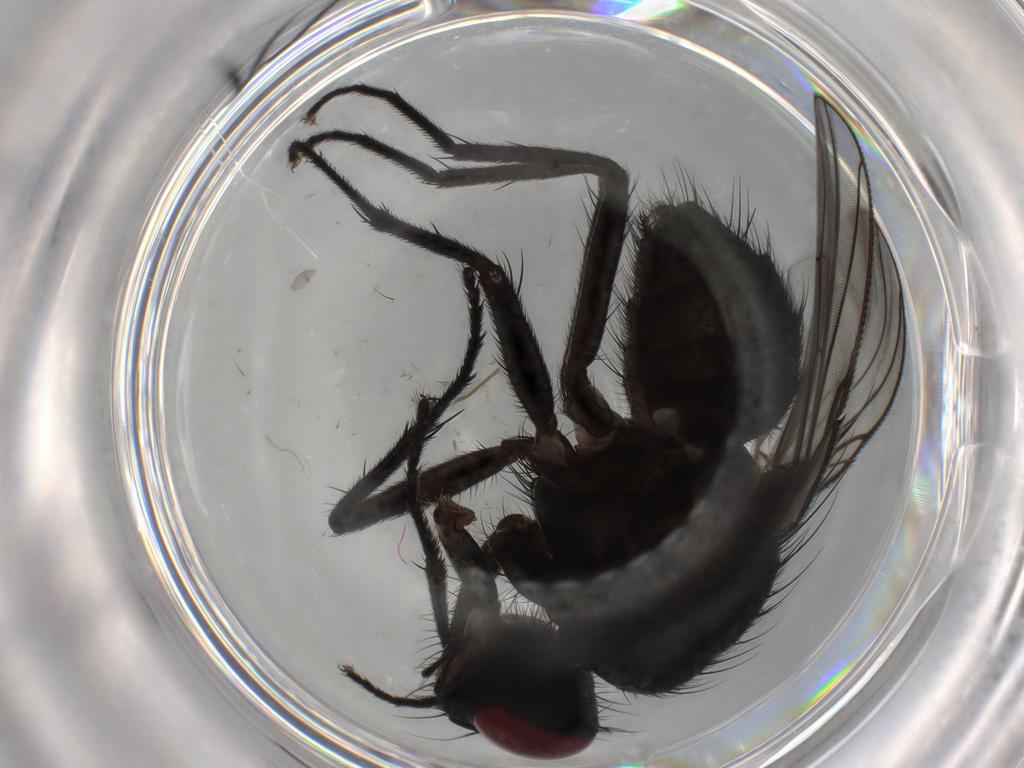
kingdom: Animalia
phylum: Arthropoda
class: Insecta
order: Diptera
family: Muscidae
